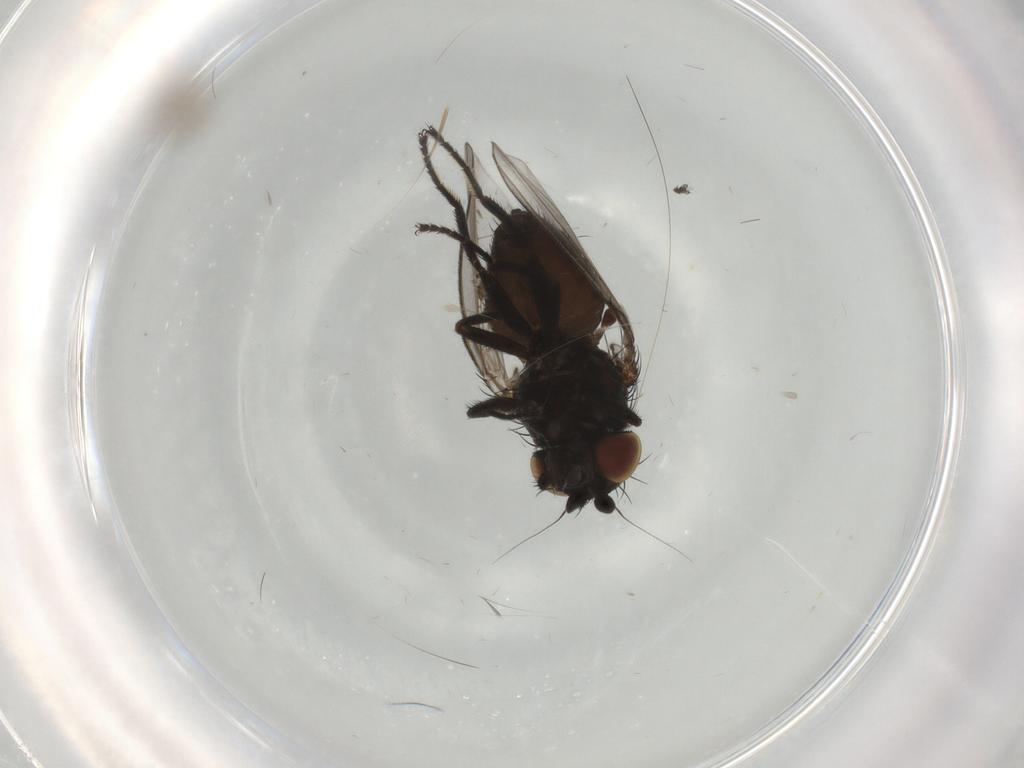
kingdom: Animalia
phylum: Arthropoda
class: Insecta
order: Diptera
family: Milichiidae
